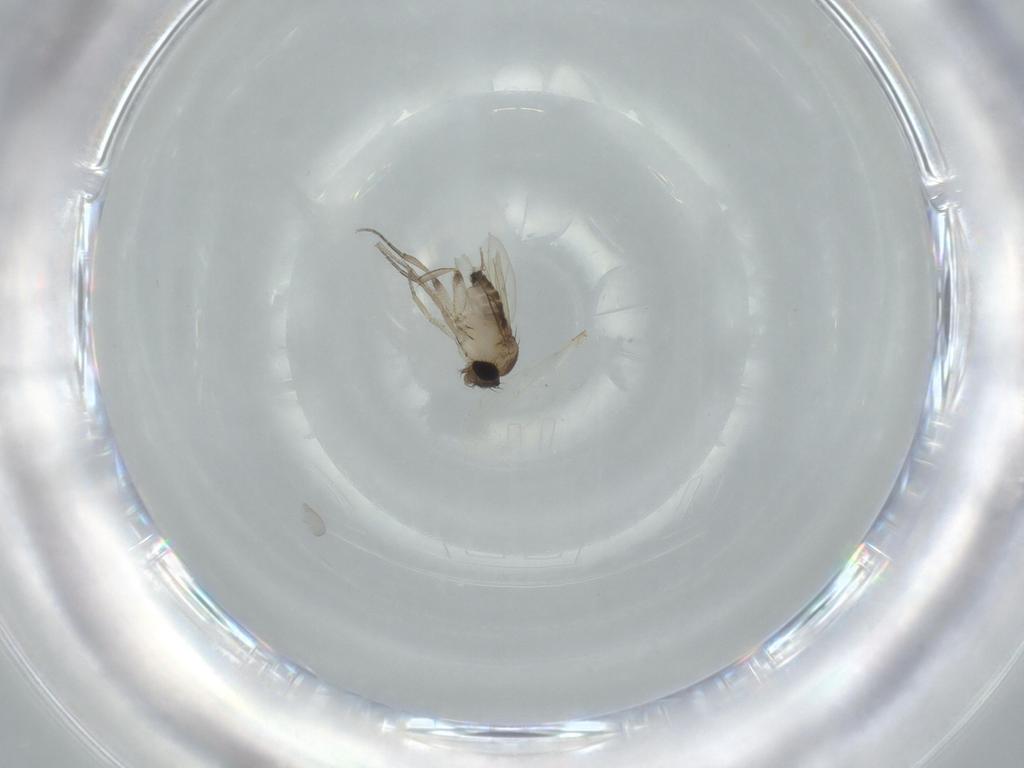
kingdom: Animalia
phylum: Arthropoda
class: Insecta
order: Diptera
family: Phoridae
